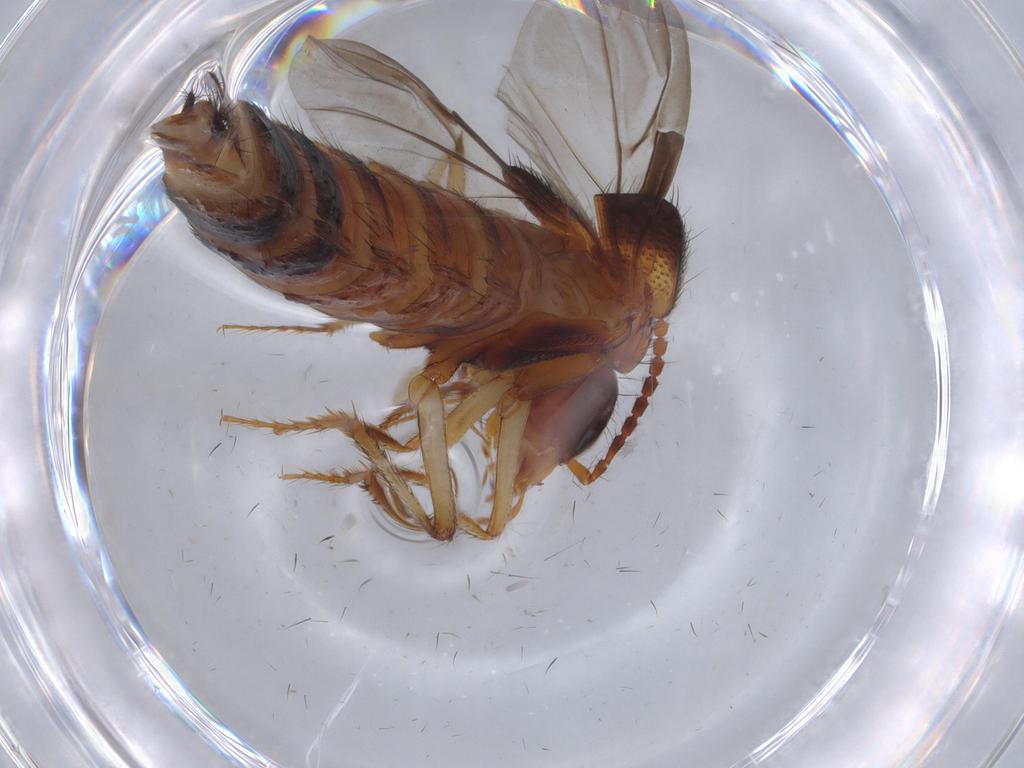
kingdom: Animalia
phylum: Arthropoda
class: Insecta
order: Coleoptera
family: Staphylinidae
